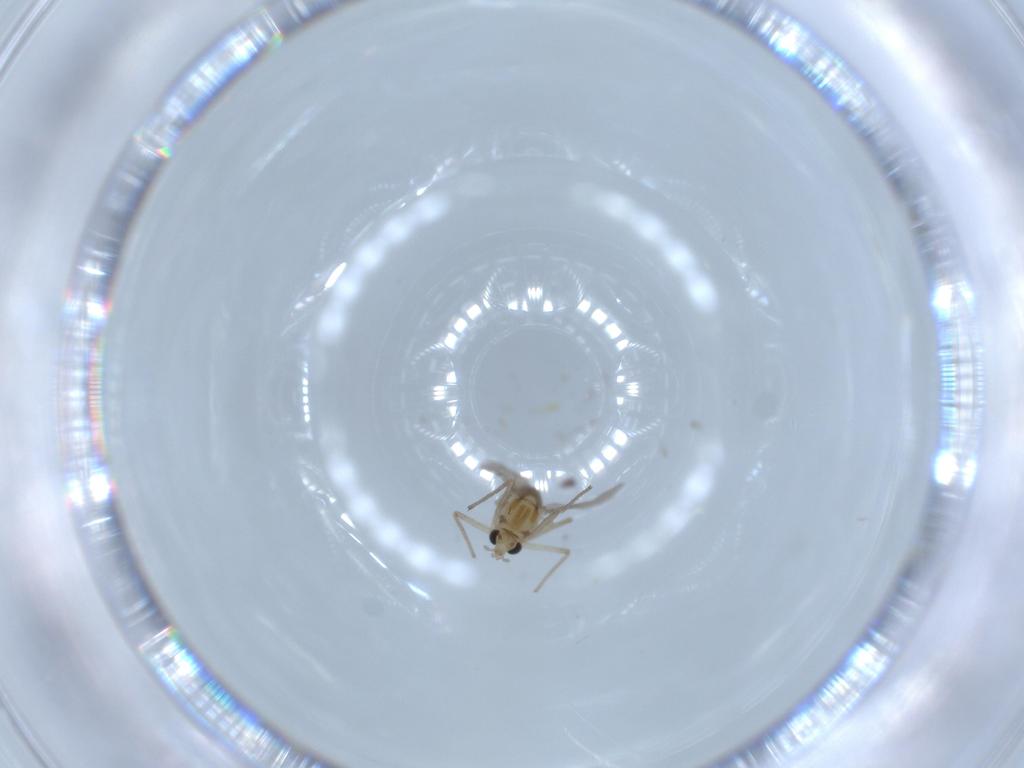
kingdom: Animalia
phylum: Arthropoda
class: Insecta
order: Diptera
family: Chironomidae
